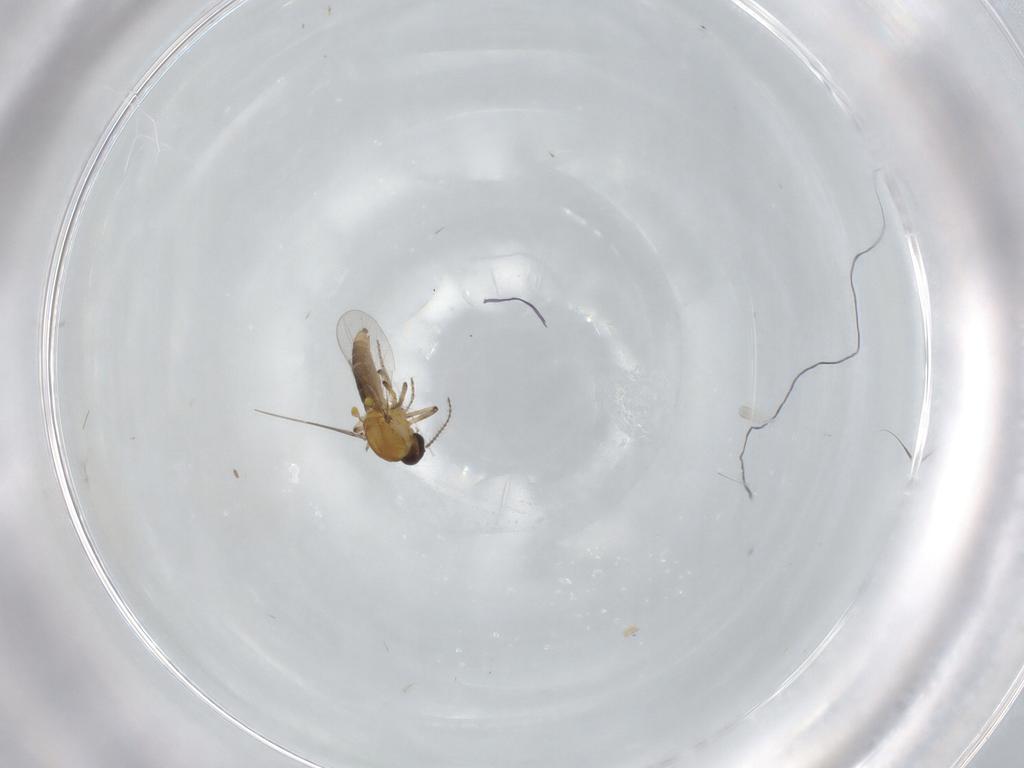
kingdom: Animalia
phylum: Arthropoda
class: Insecta
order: Diptera
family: Ceratopogonidae
